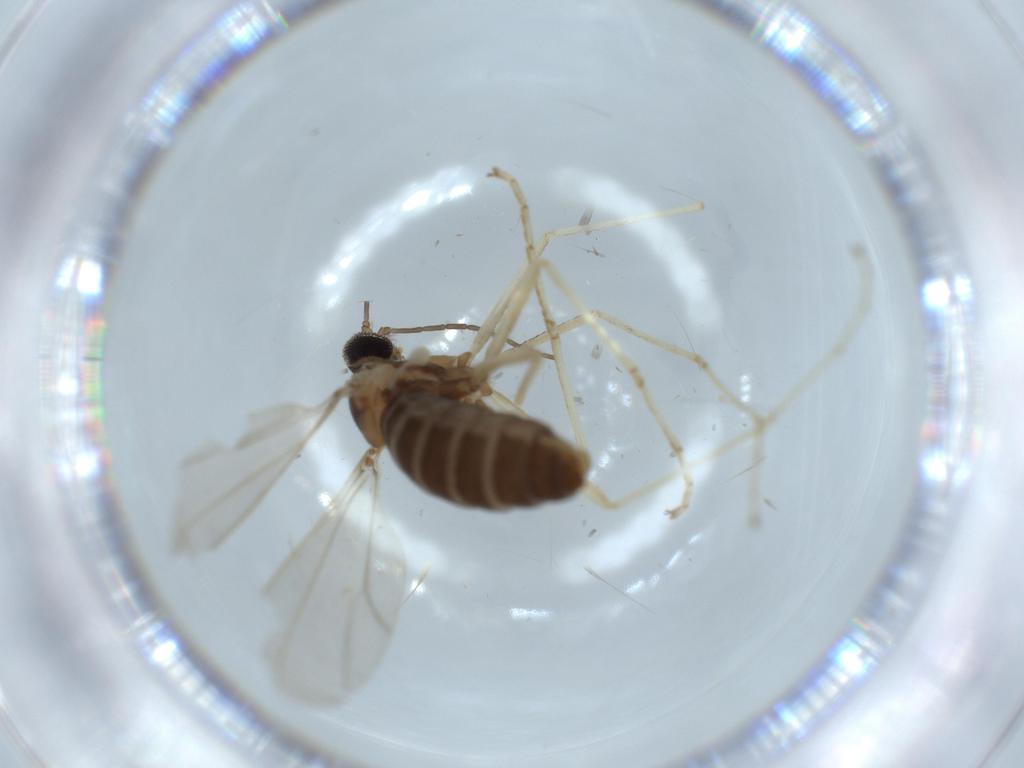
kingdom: Animalia
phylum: Arthropoda
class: Insecta
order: Diptera
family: Cecidomyiidae
